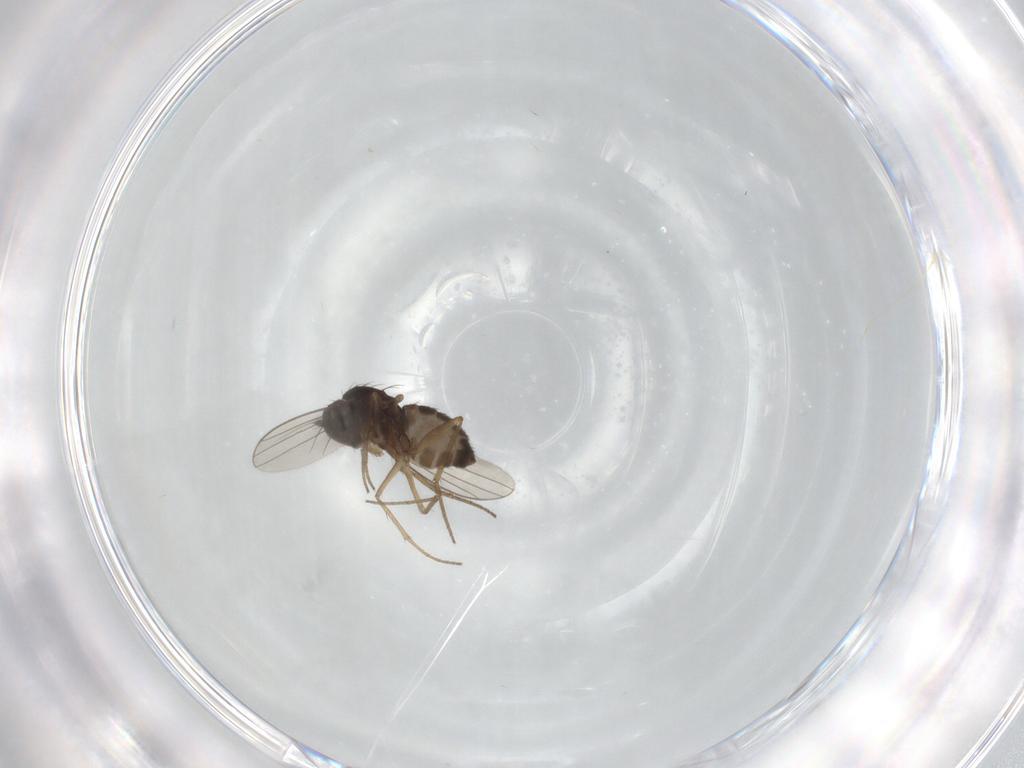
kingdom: Animalia
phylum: Arthropoda
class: Insecta
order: Diptera
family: Dolichopodidae
